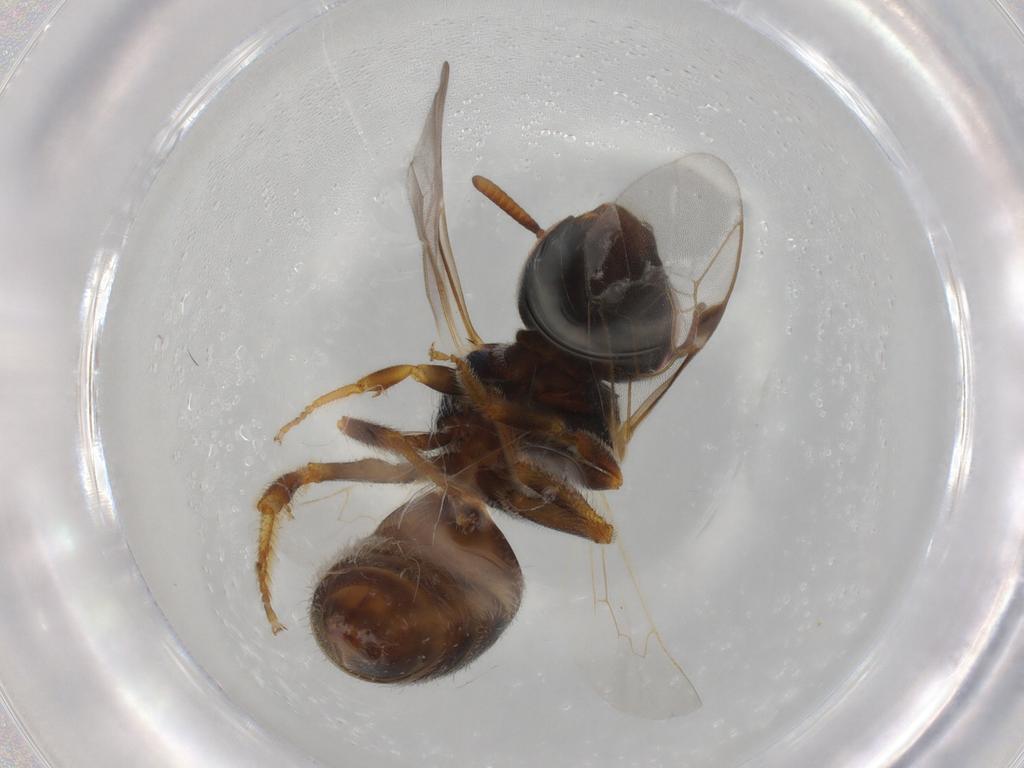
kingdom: Animalia
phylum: Arthropoda
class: Insecta
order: Hymenoptera
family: Halictidae
